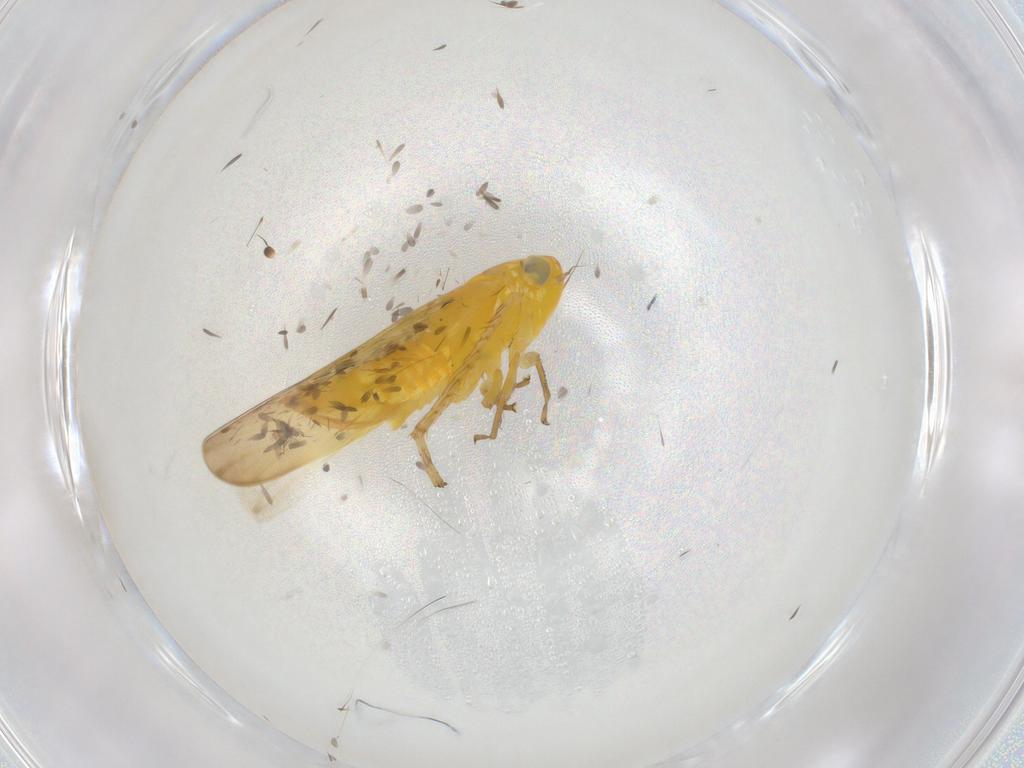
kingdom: Animalia
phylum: Arthropoda
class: Insecta
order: Hemiptera
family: Cicadellidae
